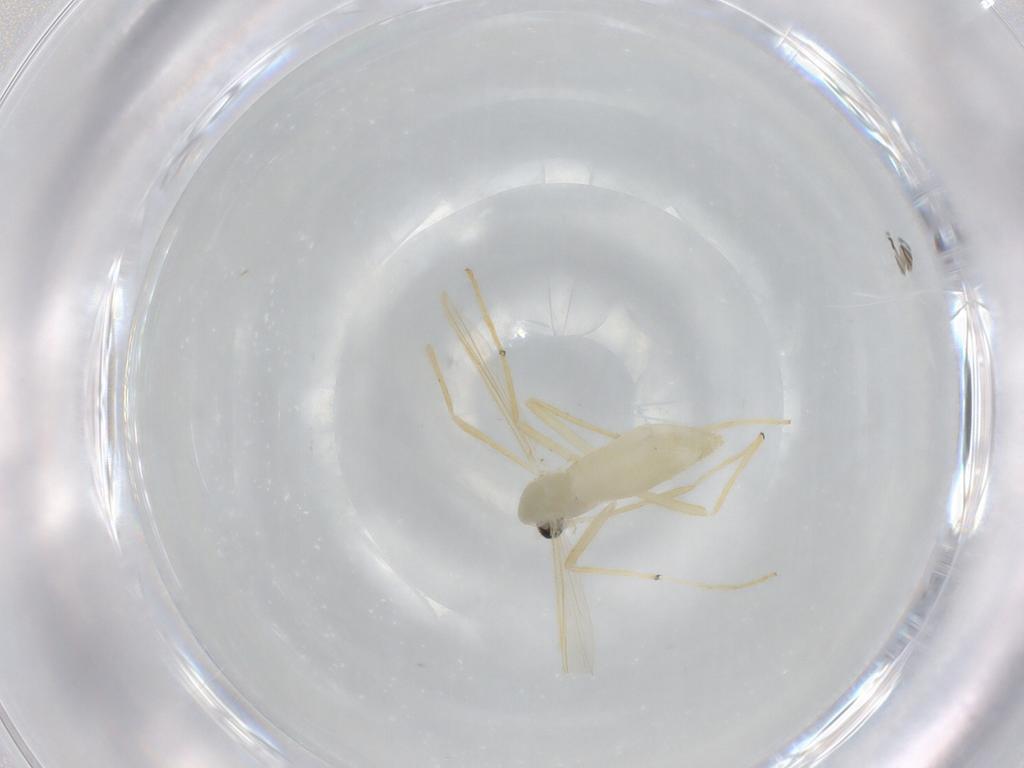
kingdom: Animalia
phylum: Arthropoda
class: Insecta
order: Diptera
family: Chironomidae
